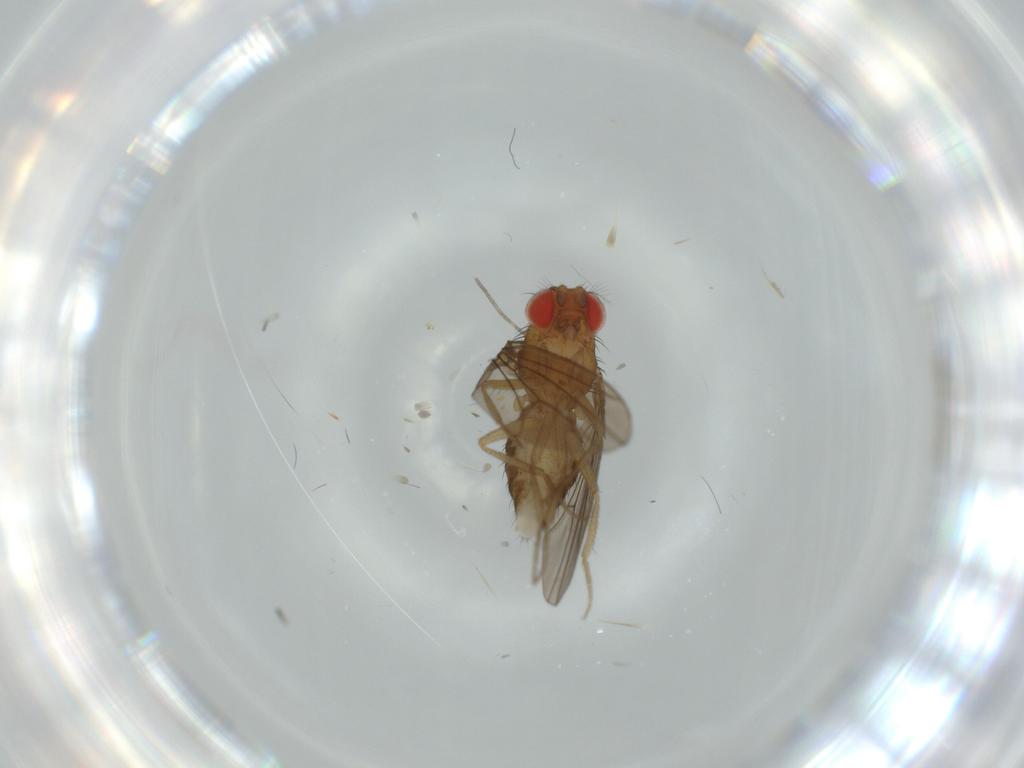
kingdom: Animalia
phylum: Arthropoda
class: Insecta
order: Diptera
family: Drosophilidae
